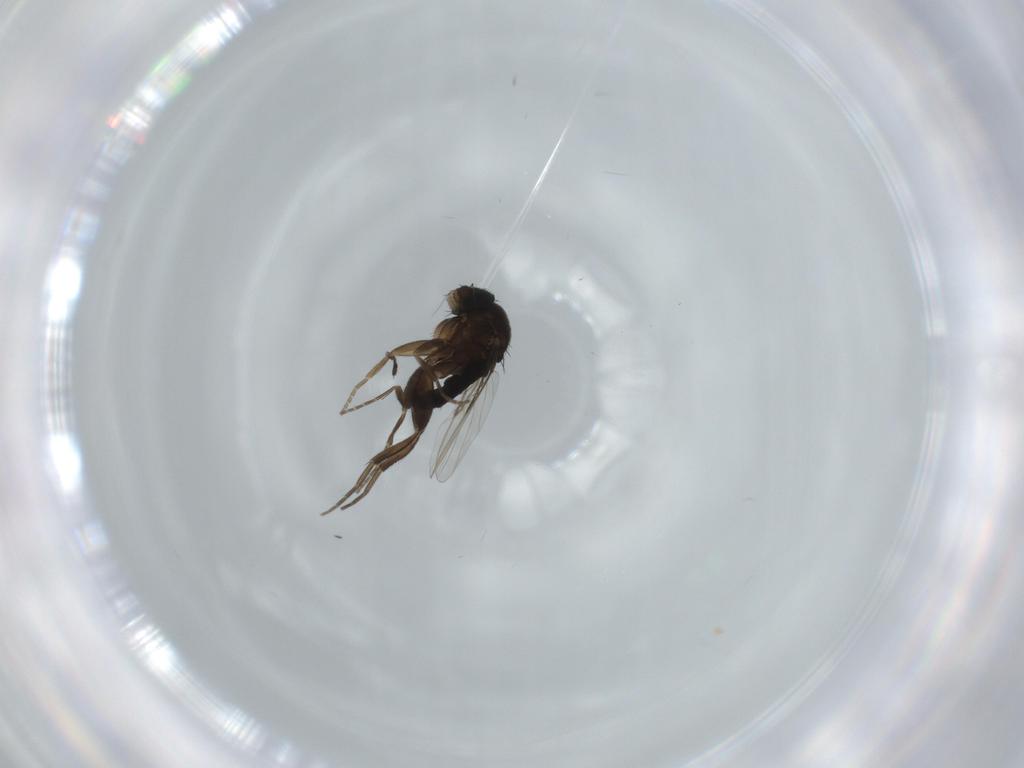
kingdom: Animalia
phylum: Arthropoda
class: Insecta
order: Diptera
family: Phoridae
